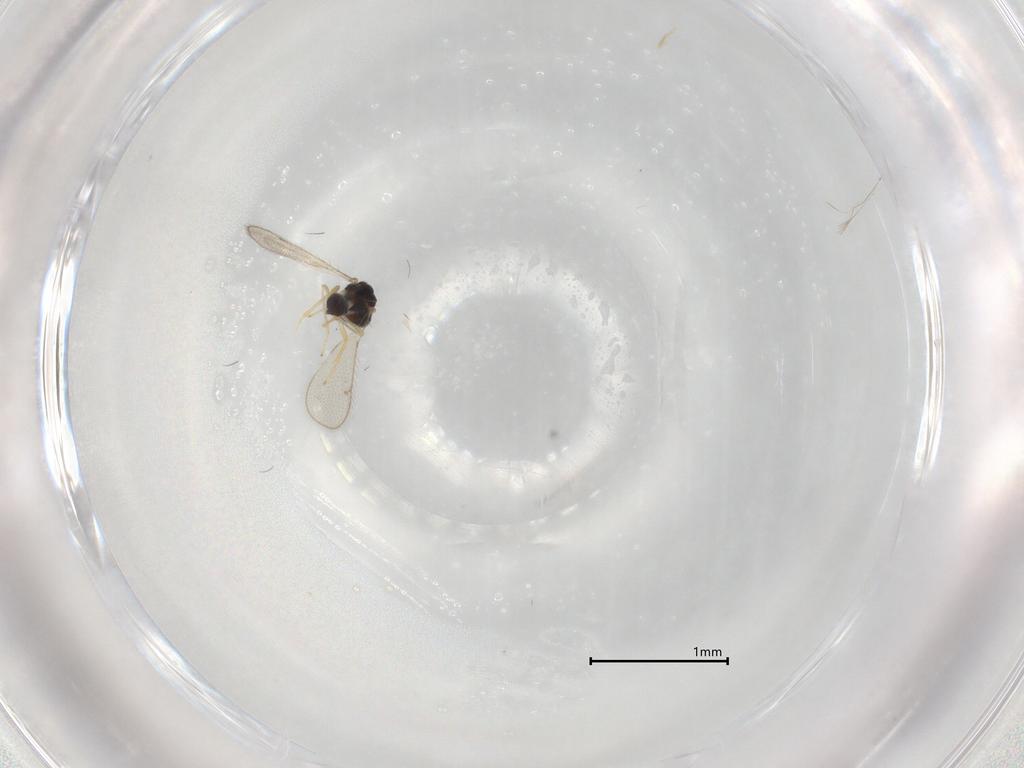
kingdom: Animalia
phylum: Arthropoda
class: Insecta
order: Hymenoptera
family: Diparidae
